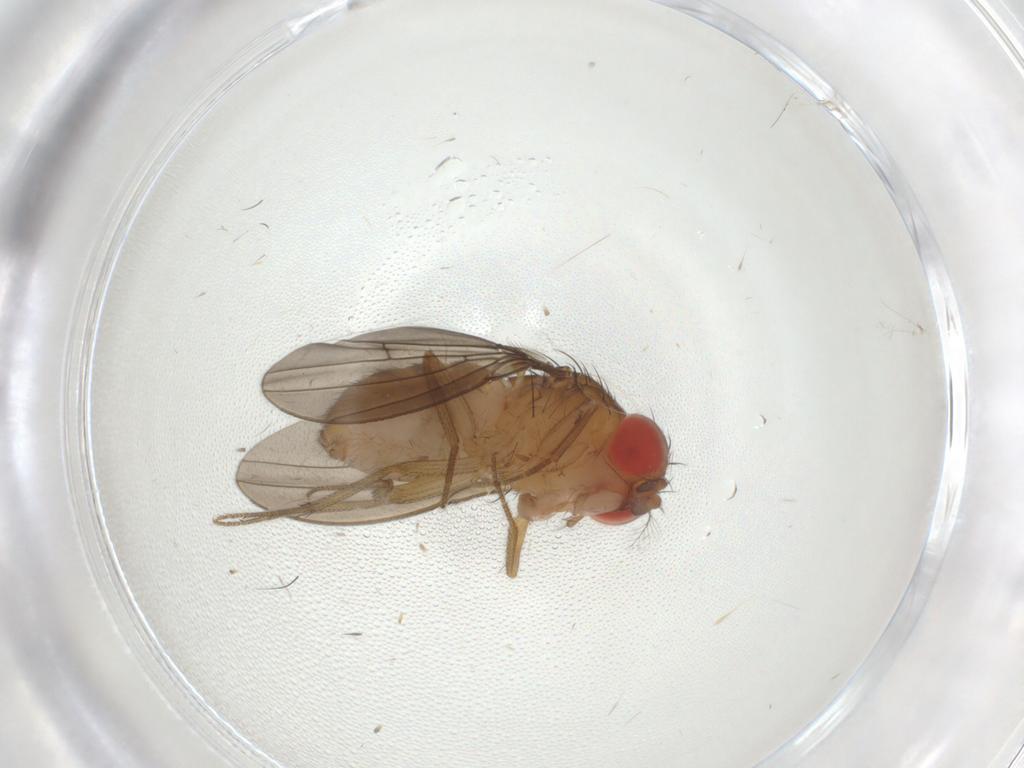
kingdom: Animalia
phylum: Arthropoda
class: Insecta
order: Diptera
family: Drosophilidae
